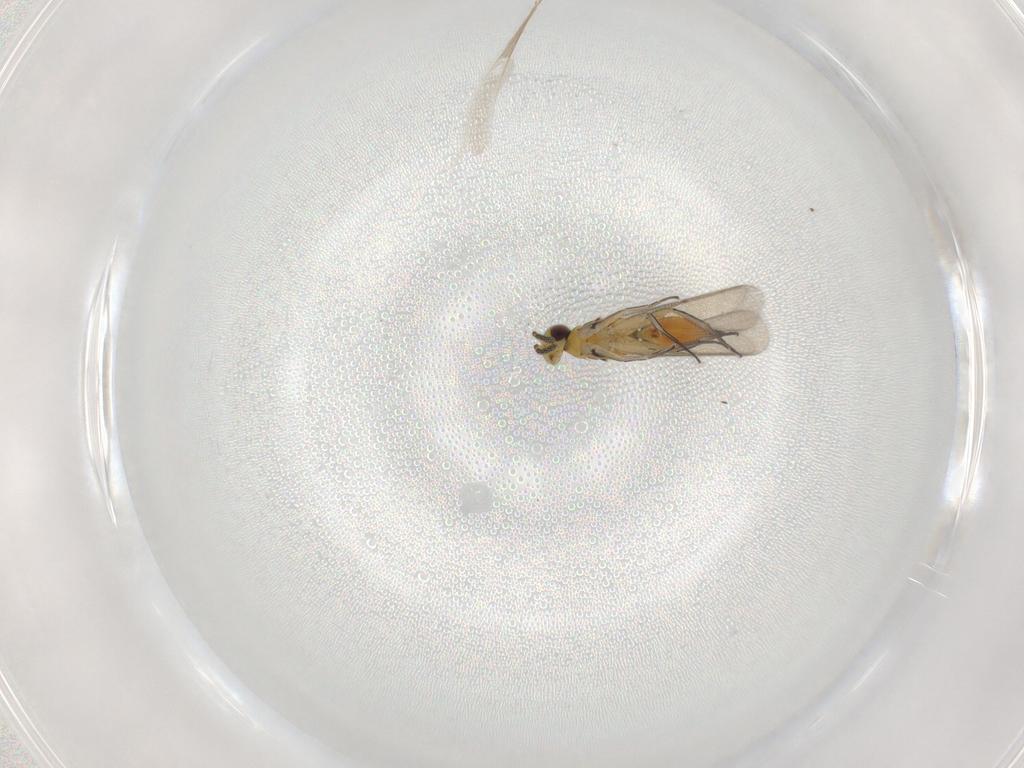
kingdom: Animalia
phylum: Arthropoda
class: Insecta
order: Hymenoptera
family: Eulophidae
